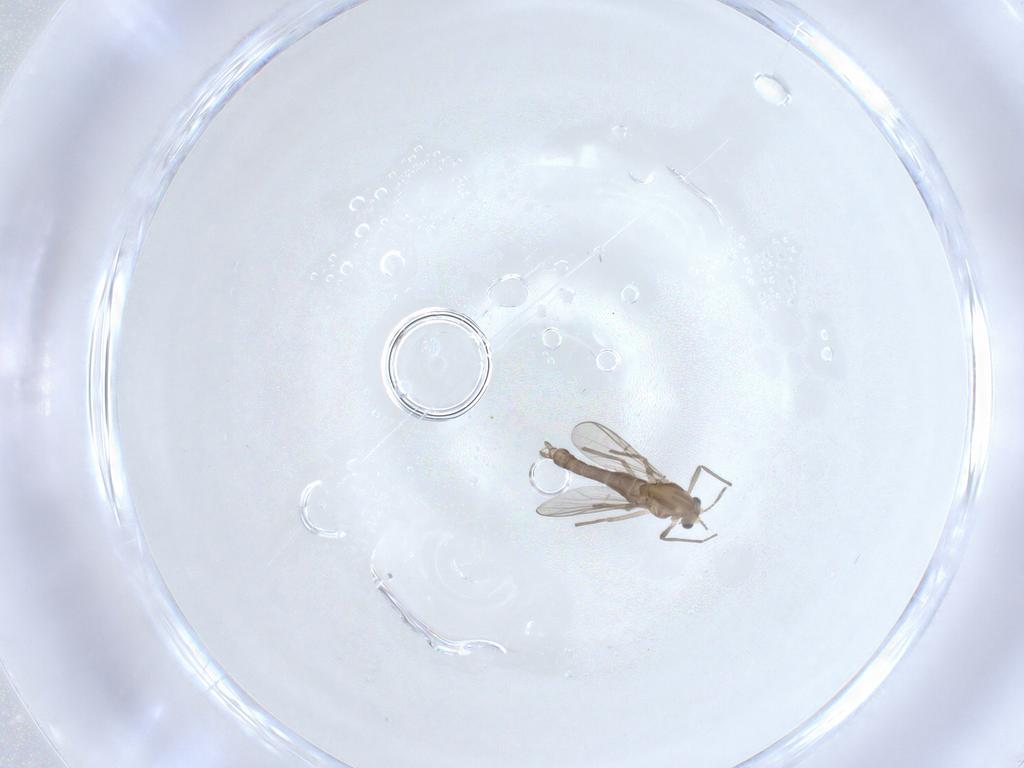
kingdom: Animalia
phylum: Arthropoda
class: Insecta
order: Diptera
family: Chironomidae
